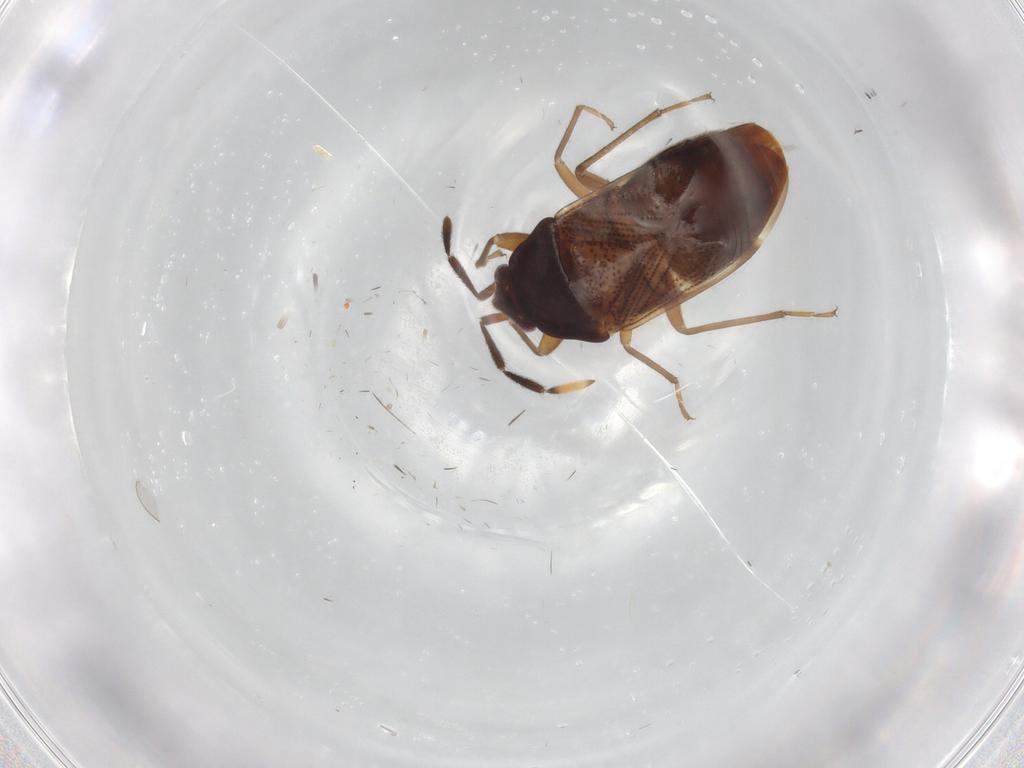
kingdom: Animalia
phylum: Arthropoda
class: Insecta
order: Hemiptera
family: Rhyparochromidae
